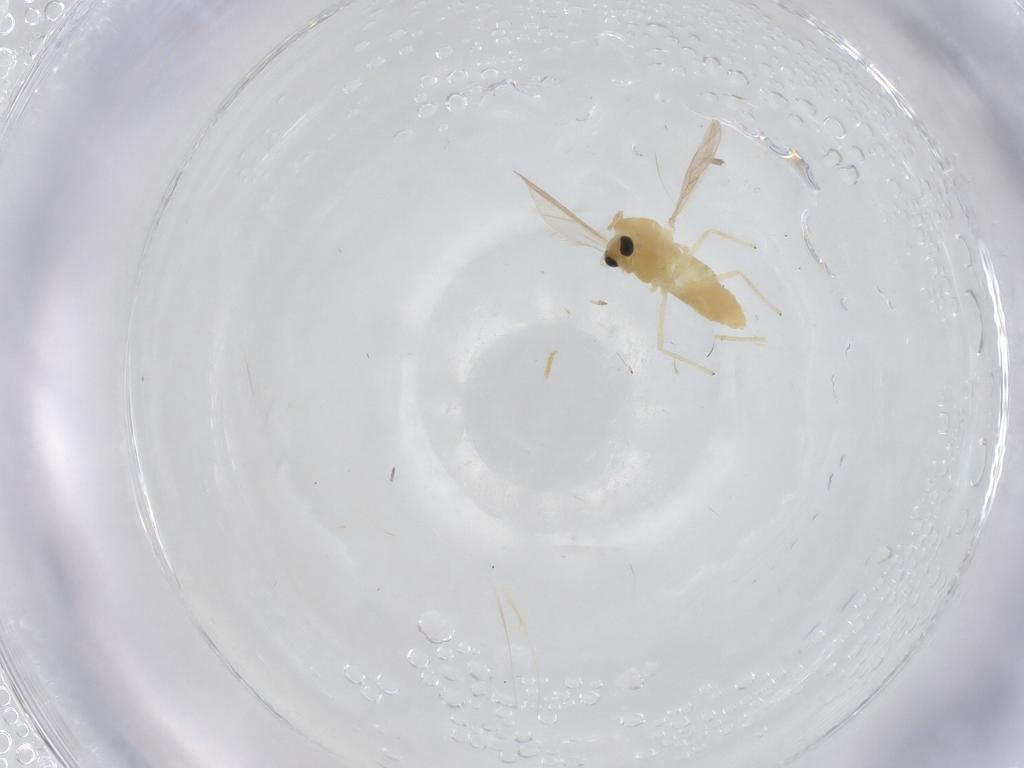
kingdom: Animalia
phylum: Arthropoda
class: Insecta
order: Diptera
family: Chironomidae
